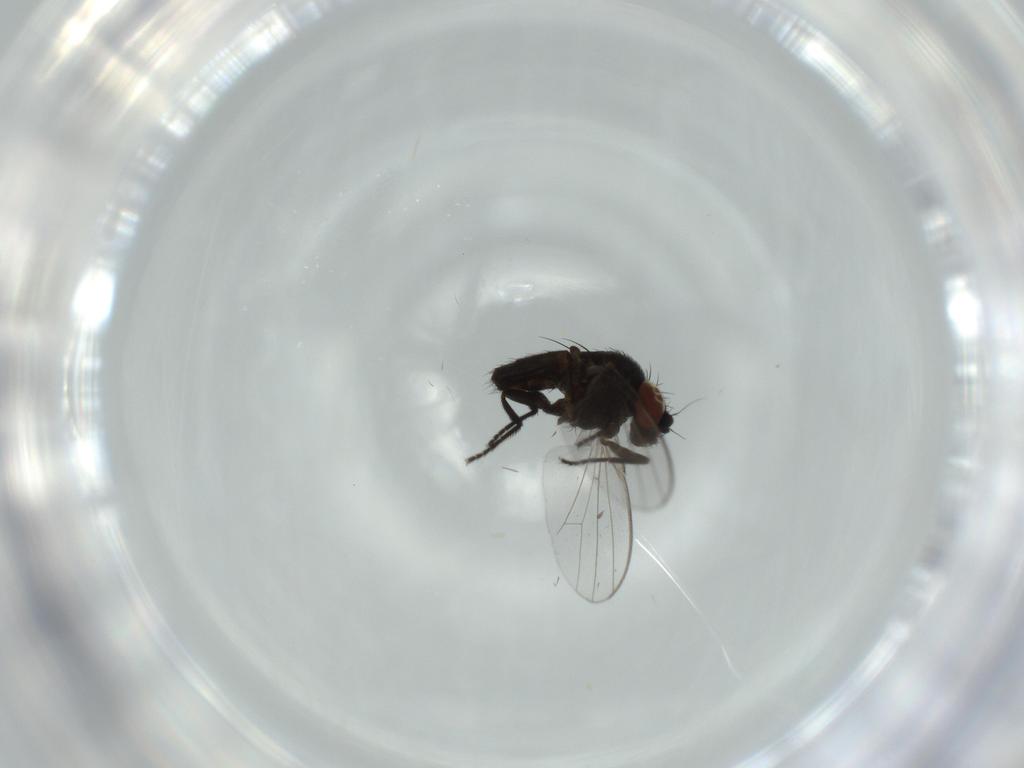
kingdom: Animalia
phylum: Arthropoda
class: Insecta
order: Diptera
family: Milichiidae
